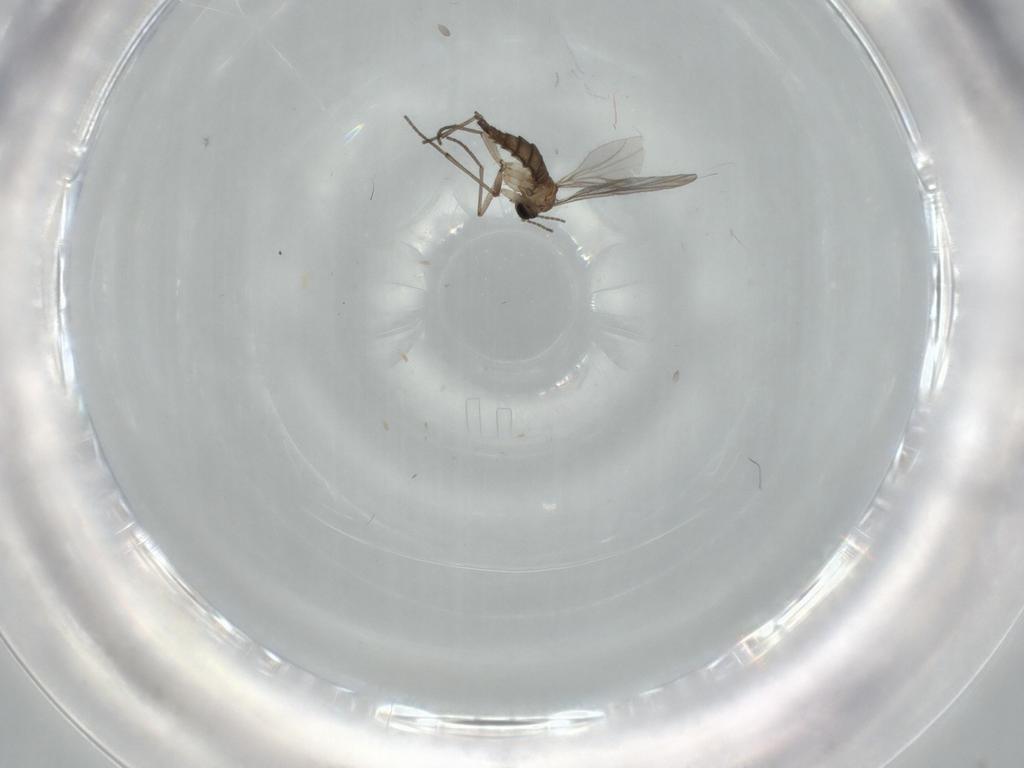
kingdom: Animalia
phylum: Arthropoda
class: Insecta
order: Diptera
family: Sciaridae
